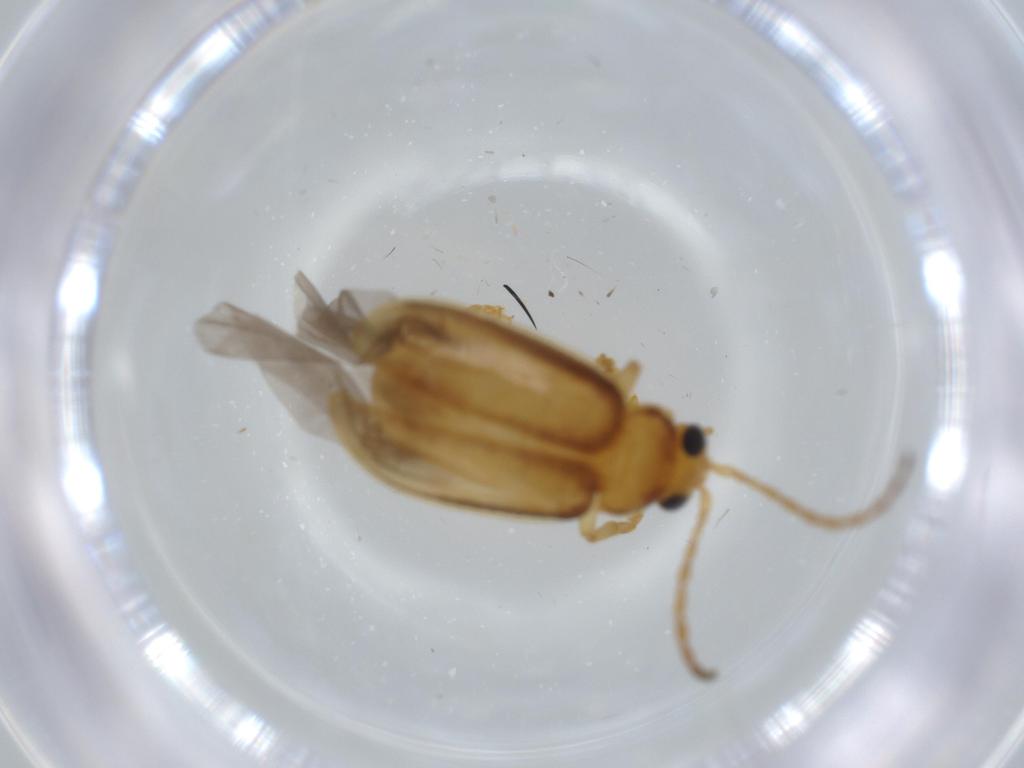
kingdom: Animalia
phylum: Arthropoda
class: Insecta
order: Coleoptera
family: Chrysomelidae
